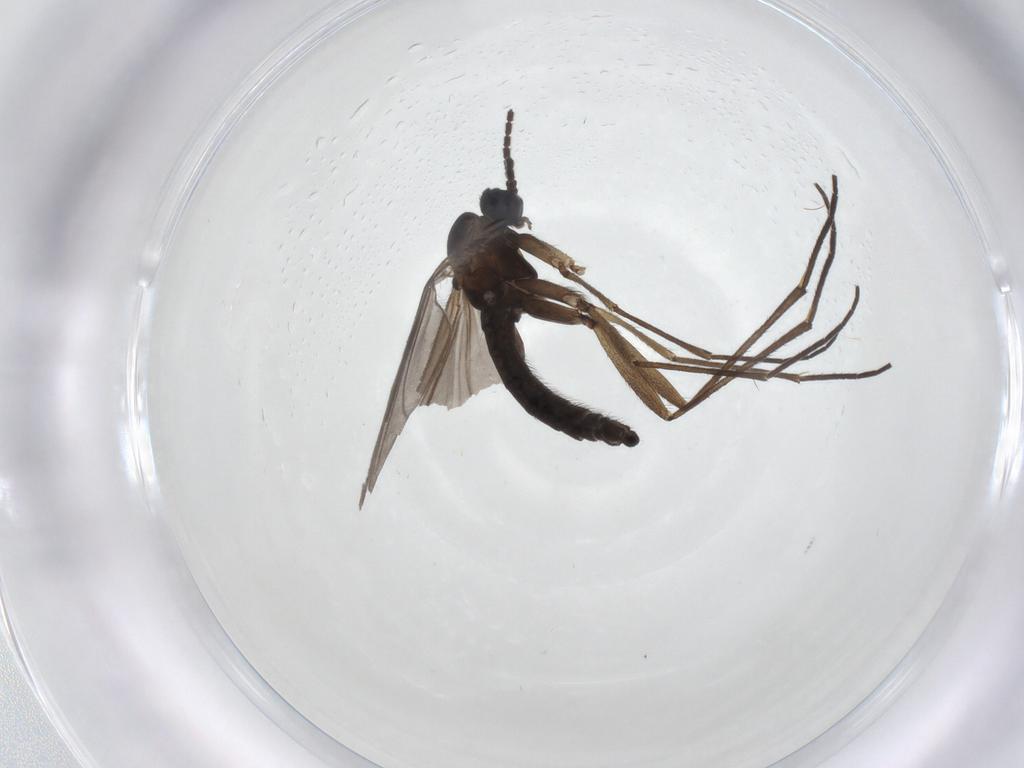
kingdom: Animalia
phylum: Arthropoda
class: Insecta
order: Diptera
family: Sciaridae
